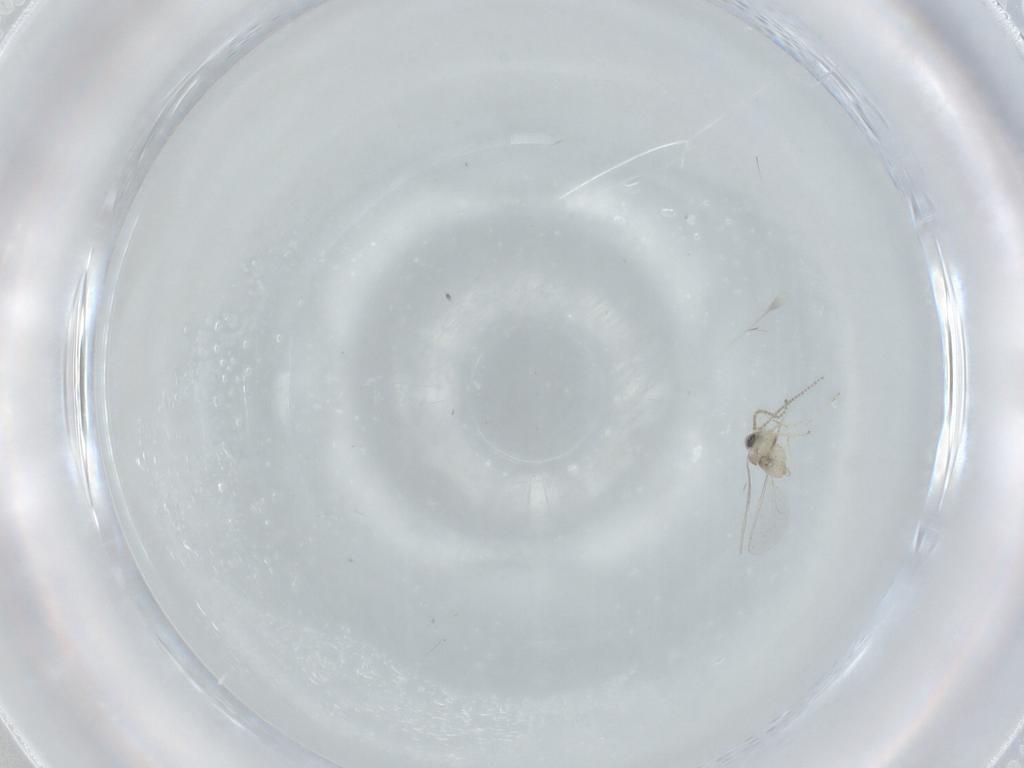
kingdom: Animalia
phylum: Arthropoda
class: Insecta
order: Diptera
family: Cecidomyiidae
